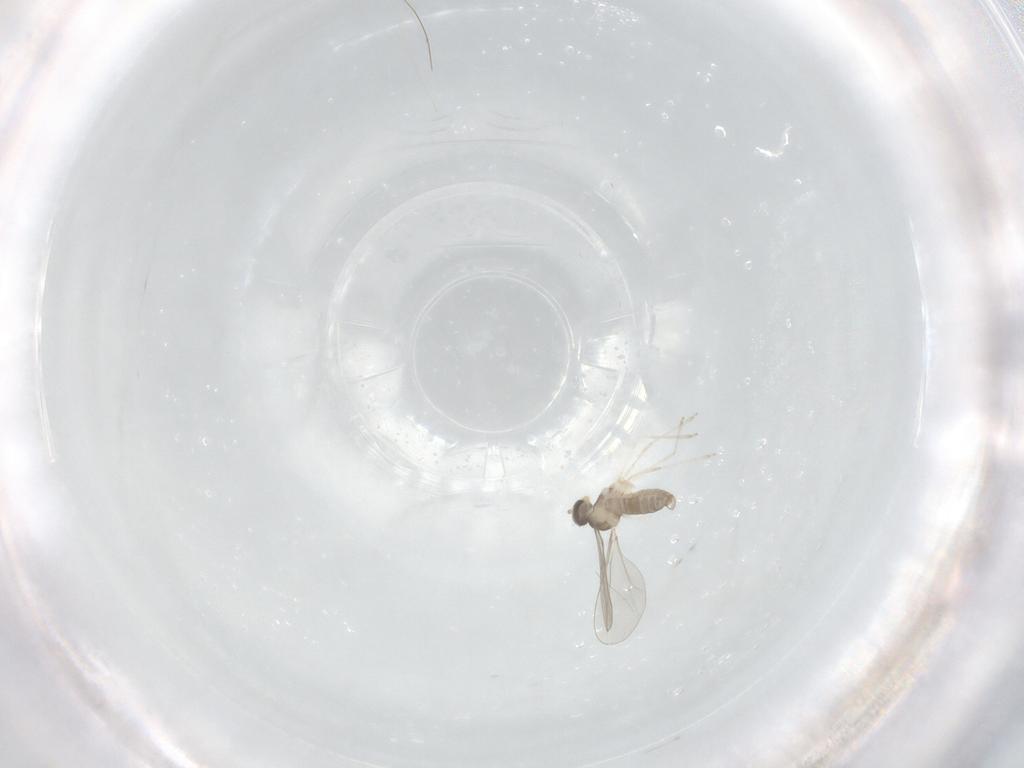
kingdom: Animalia
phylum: Arthropoda
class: Insecta
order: Diptera
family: Cecidomyiidae
